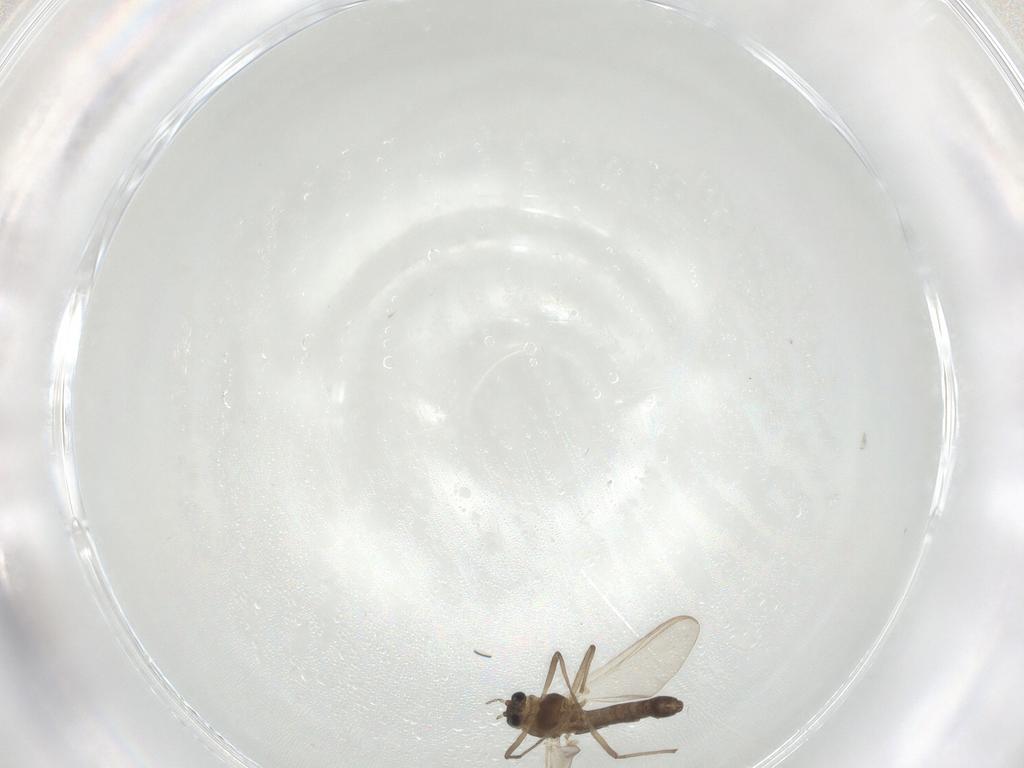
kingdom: Animalia
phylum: Arthropoda
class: Insecta
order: Diptera
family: Chironomidae
